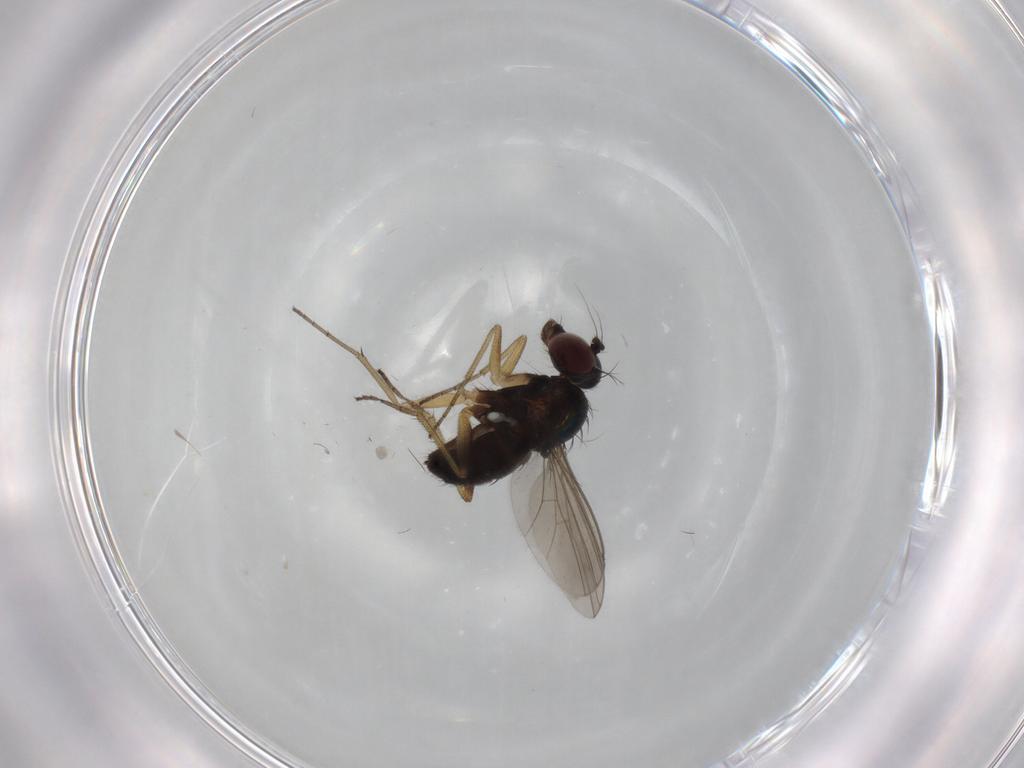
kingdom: Animalia
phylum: Arthropoda
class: Insecta
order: Diptera
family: Dolichopodidae
